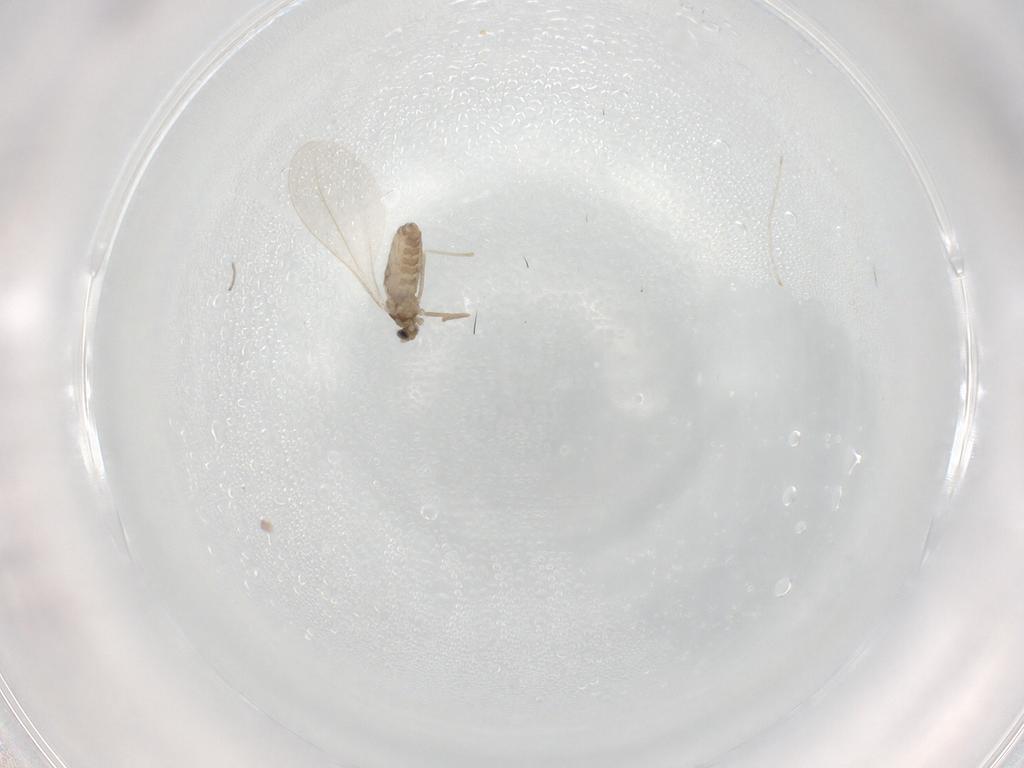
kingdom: Animalia
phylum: Arthropoda
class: Insecta
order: Diptera
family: Cecidomyiidae
